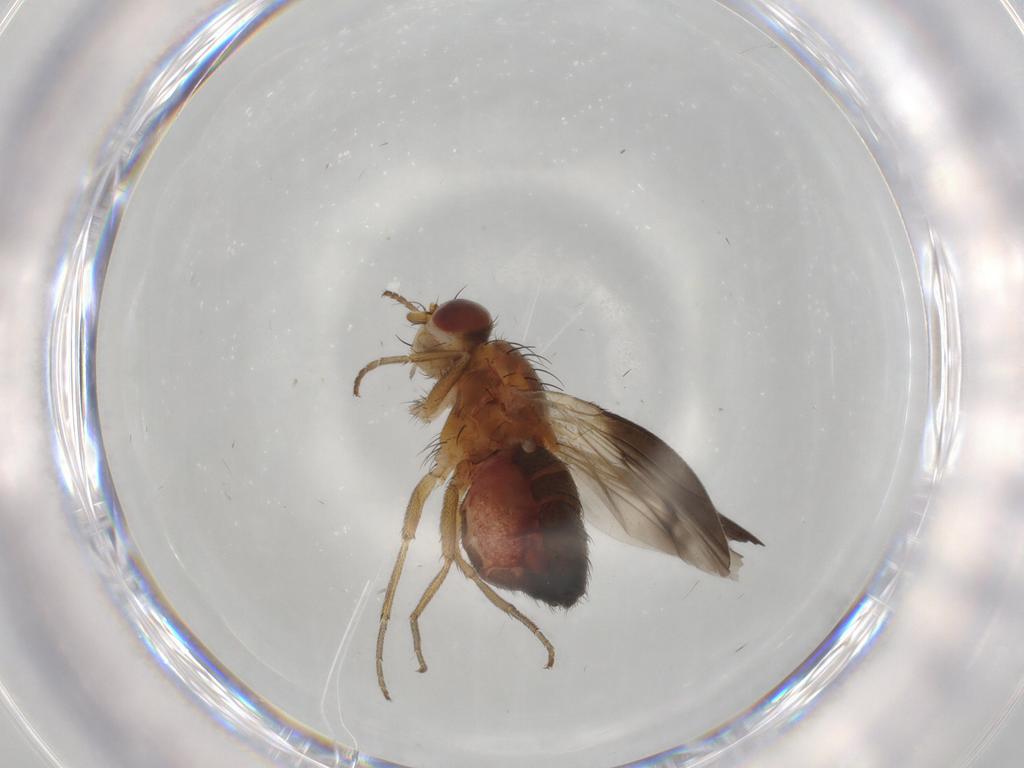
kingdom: Animalia
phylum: Arthropoda
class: Insecta
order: Diptera
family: Heleomyzidae
